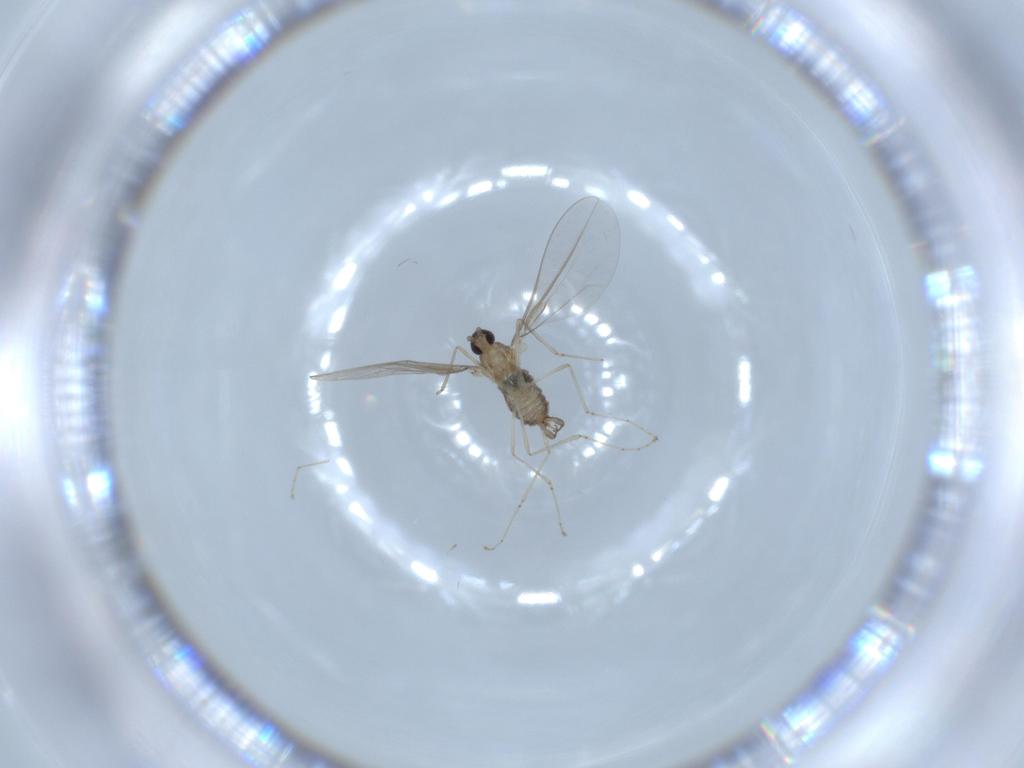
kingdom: Animalia
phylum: Arthropoda
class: Insecta
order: Diptera
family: Cecidomyiidae
